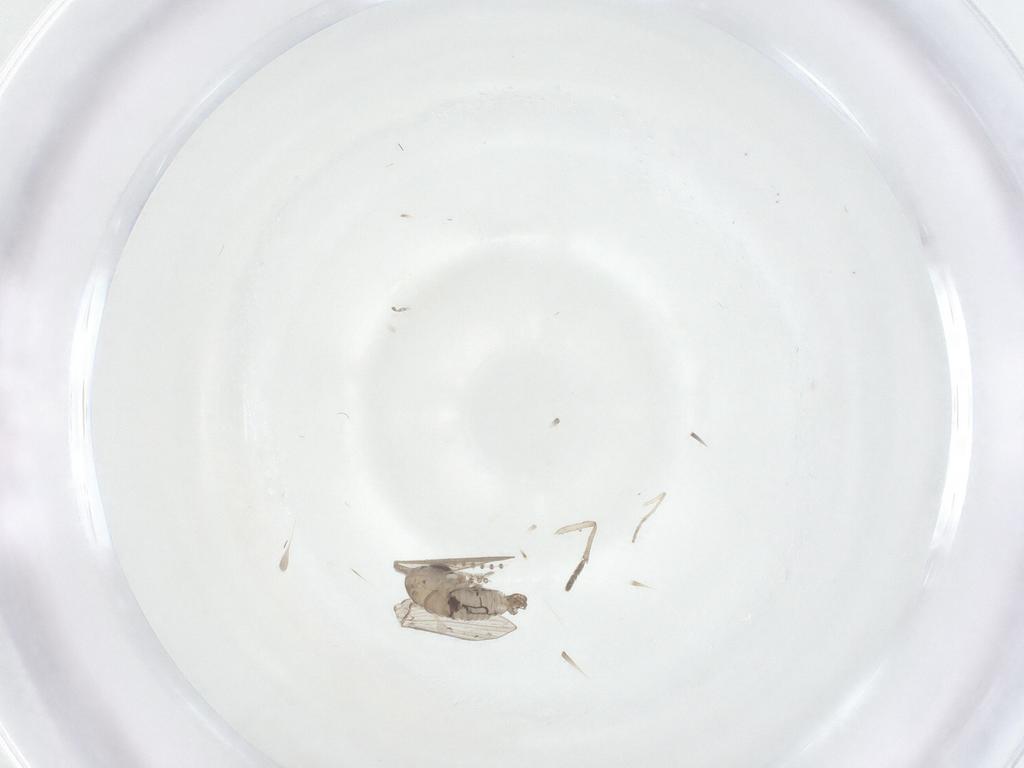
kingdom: Animalia
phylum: Arthropoda
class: Insecta
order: Diptera
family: Psychodidae
